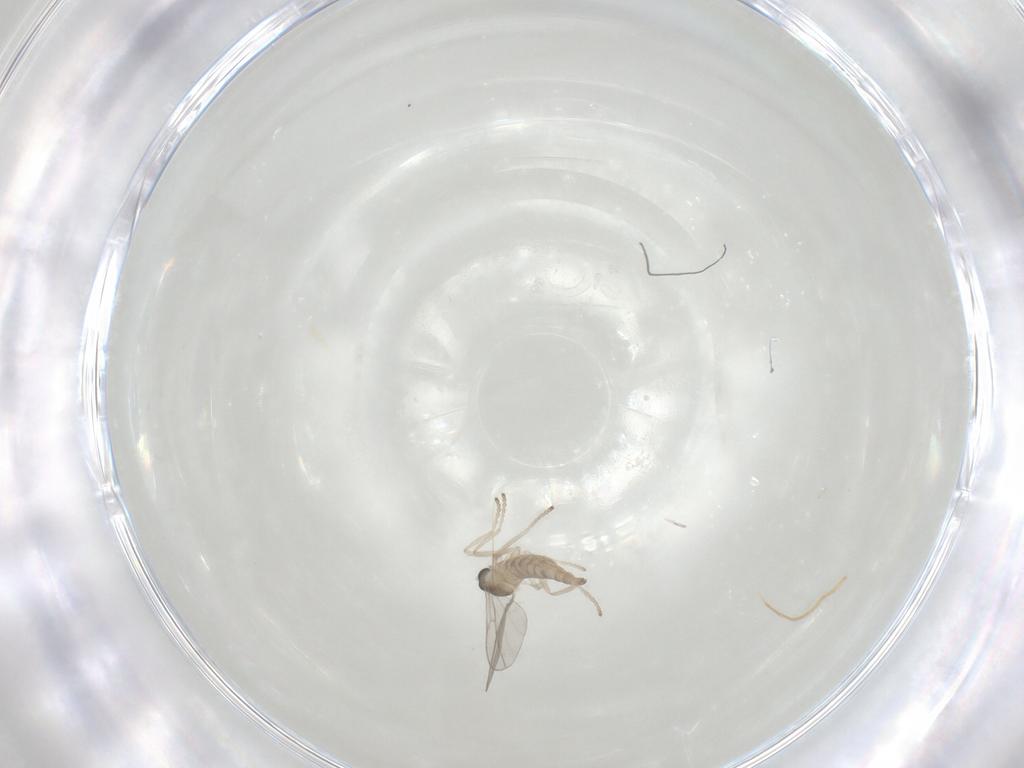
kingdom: Animalia
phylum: Arthropoda
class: Insecta
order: Diptera
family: Cecidomyiidae
